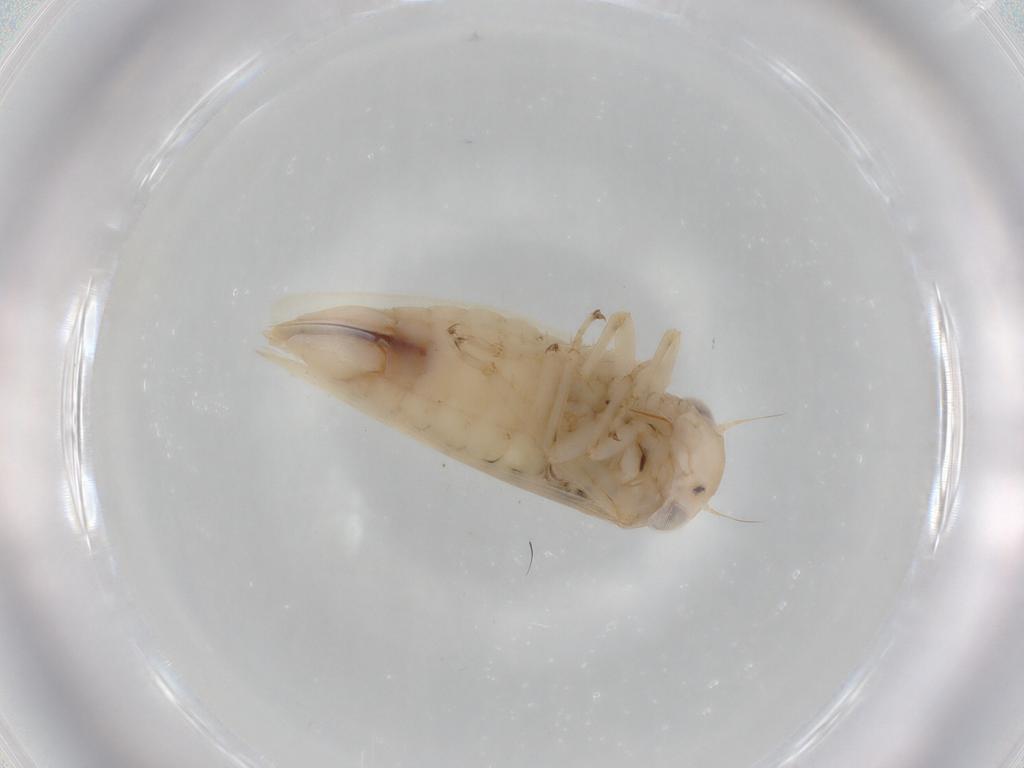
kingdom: Animalia
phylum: Arthropoda
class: Insecta
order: Hemiptera
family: Cicadellidae
